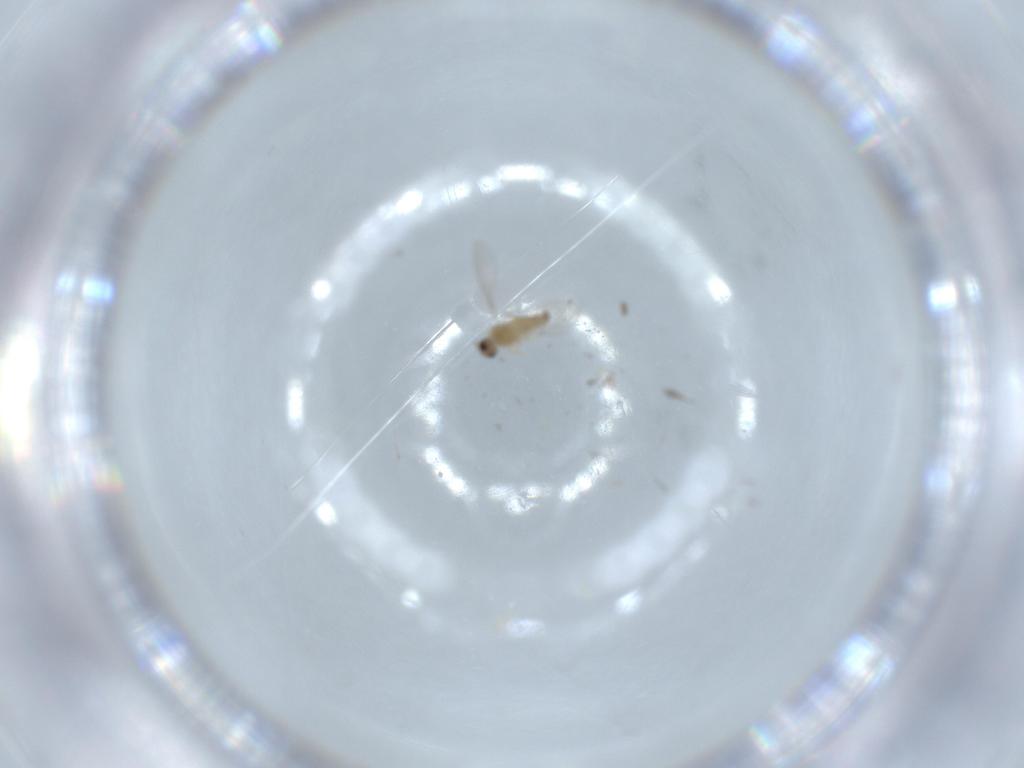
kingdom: Animalia
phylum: Arthropoda
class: Insecta
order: Diptera
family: Cecidomyiidae
